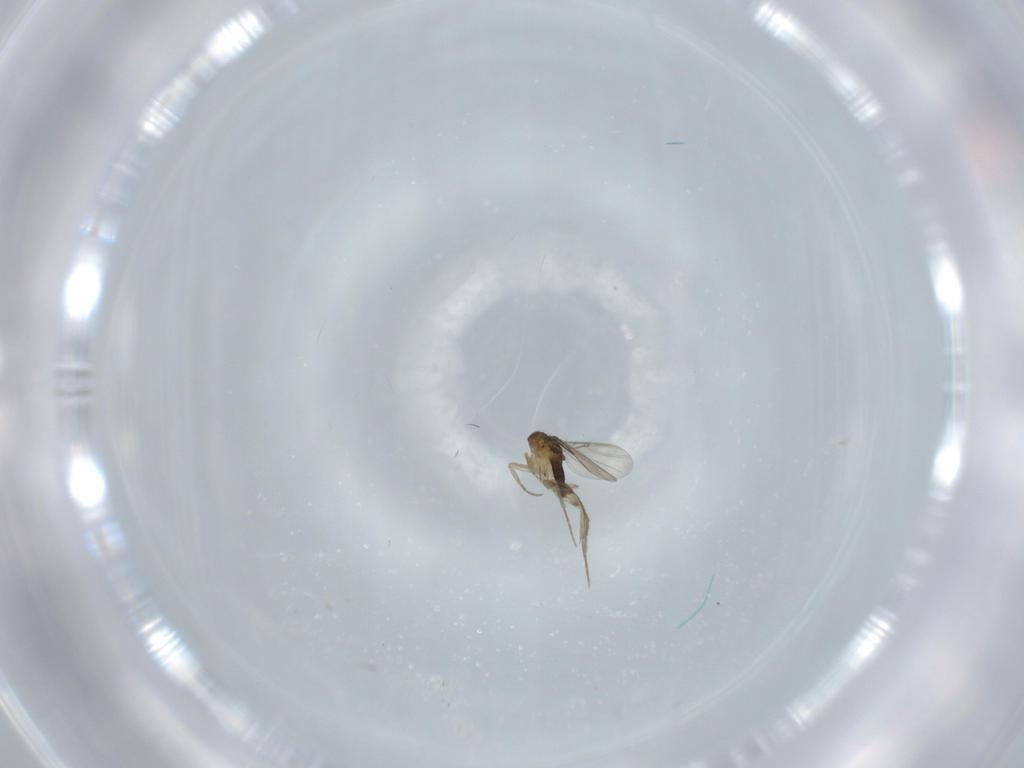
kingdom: Animalia
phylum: Arthropoda
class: Insecta
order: Diptera
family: Phoridae
